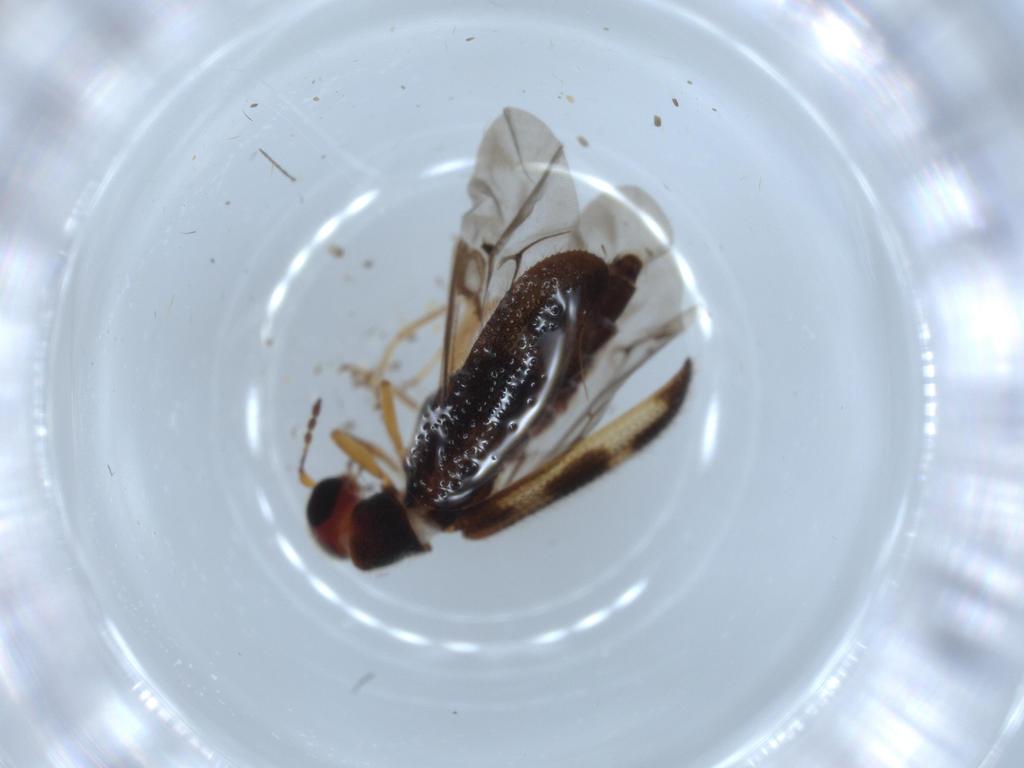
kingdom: Animalia
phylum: Arthropoda
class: Insecta
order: Coleoptera
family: Cleridae
